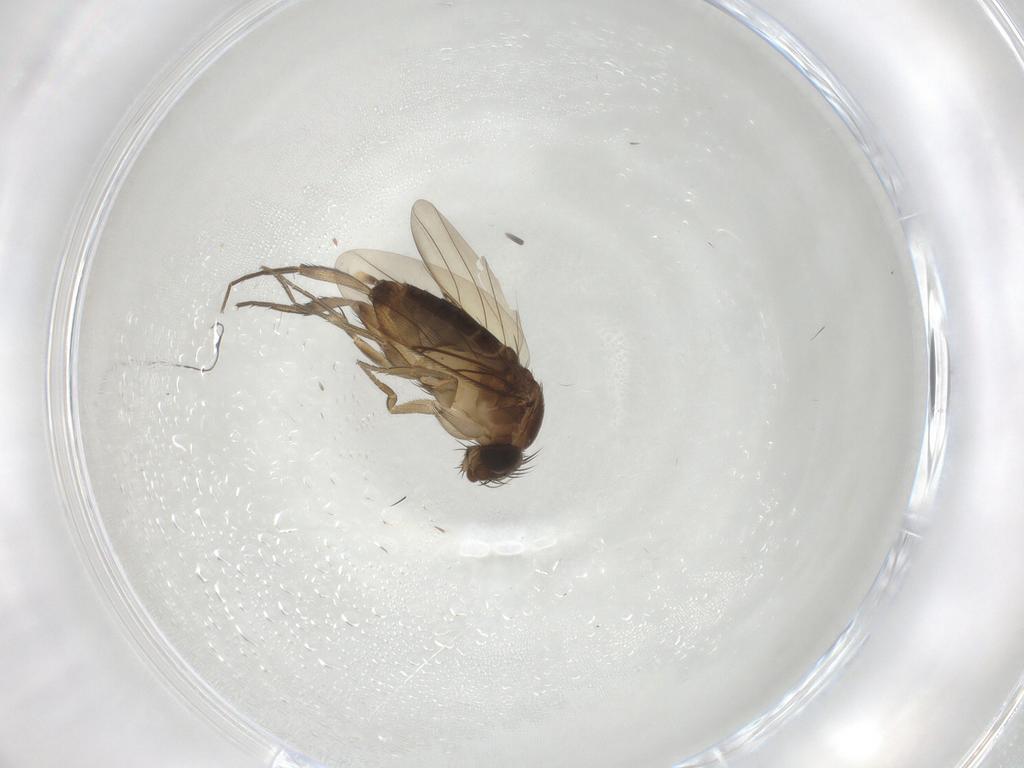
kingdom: Animalia
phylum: Arthropoda
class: Insecta
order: Diptera
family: Phoridae
